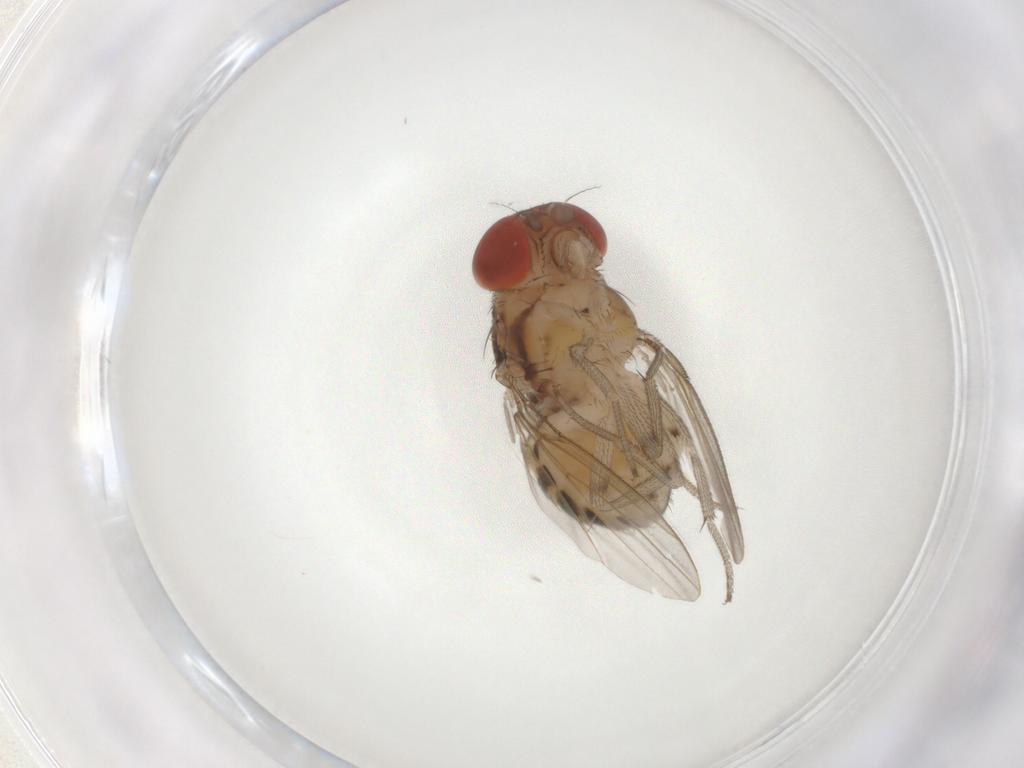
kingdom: Animalia
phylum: Arthropoda
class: Insecta
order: Diptera
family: Drosophilidae
